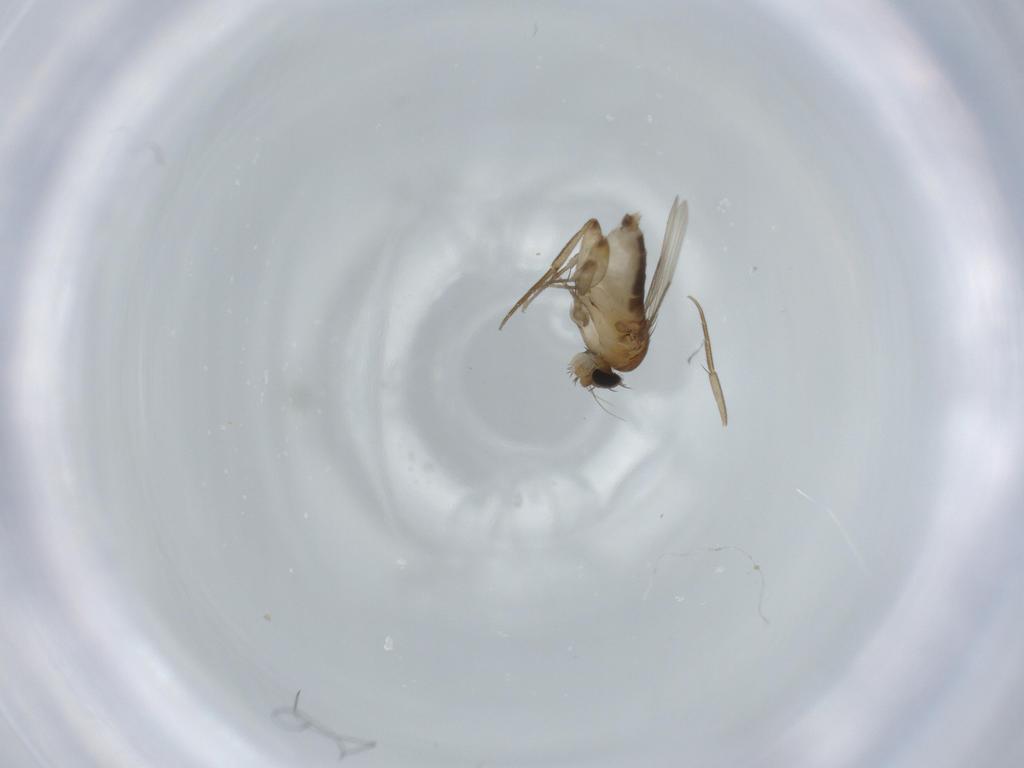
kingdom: Animalia
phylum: Arthropoda
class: Insecta
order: Diptera
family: Phoridae
